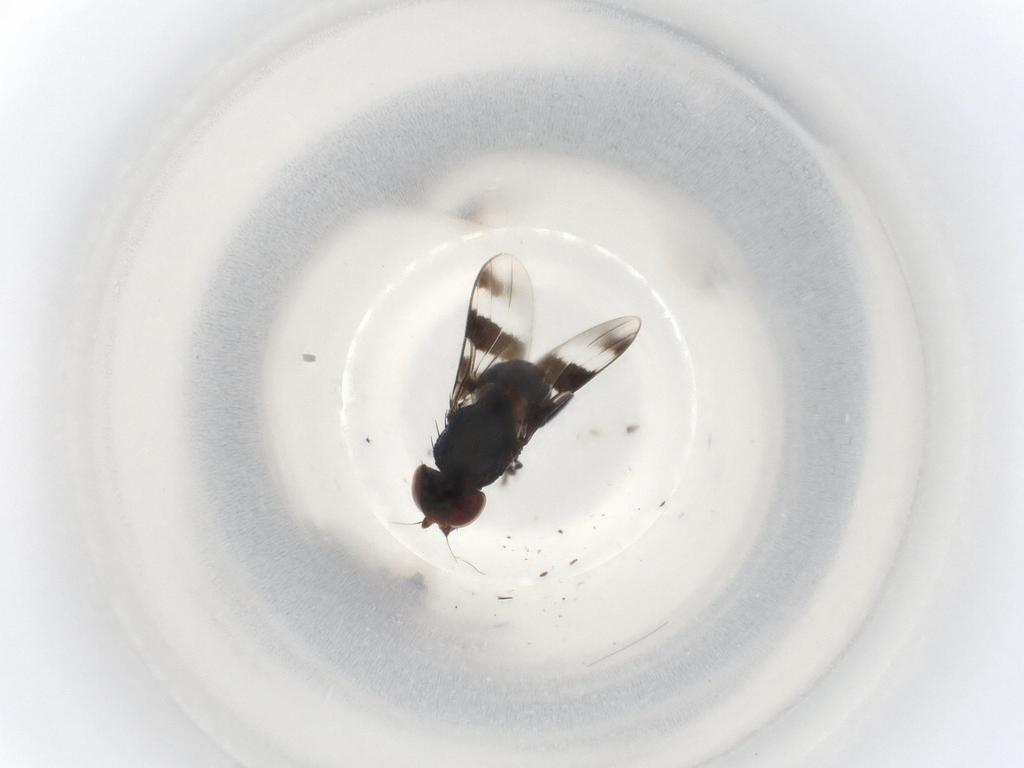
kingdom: Animalia
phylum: Arthropoda
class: Insecta
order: Diptera
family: Chloropidae
